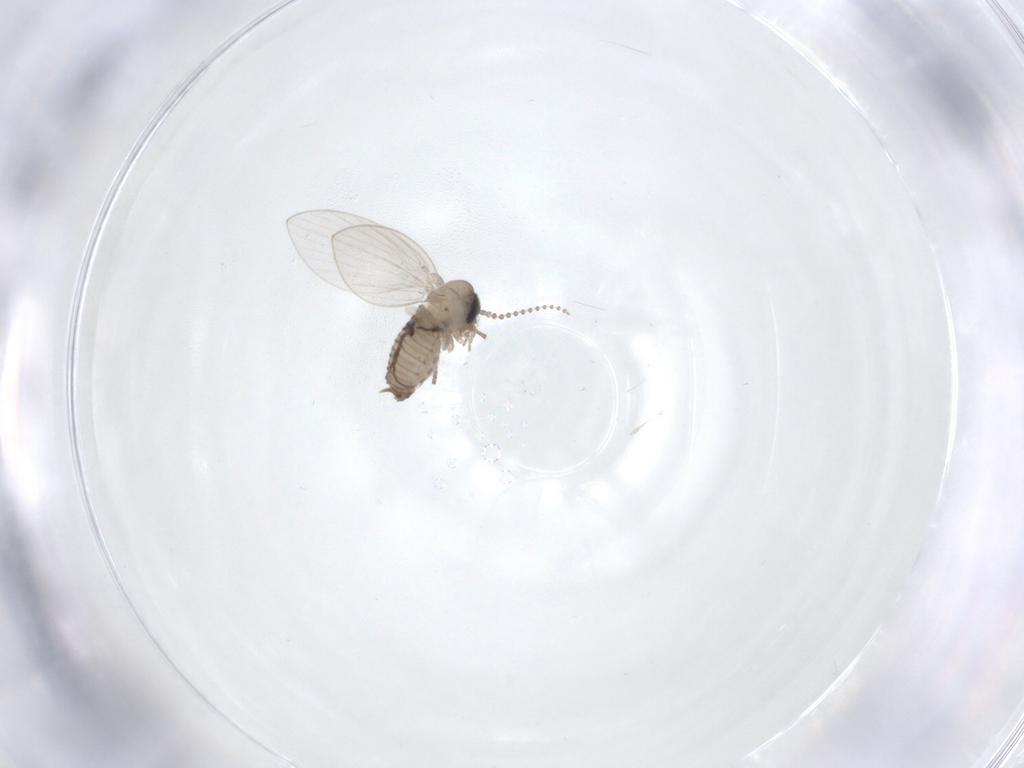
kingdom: Animalia
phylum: Arthropoda
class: Insecta
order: Diptera
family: Psychodidae
